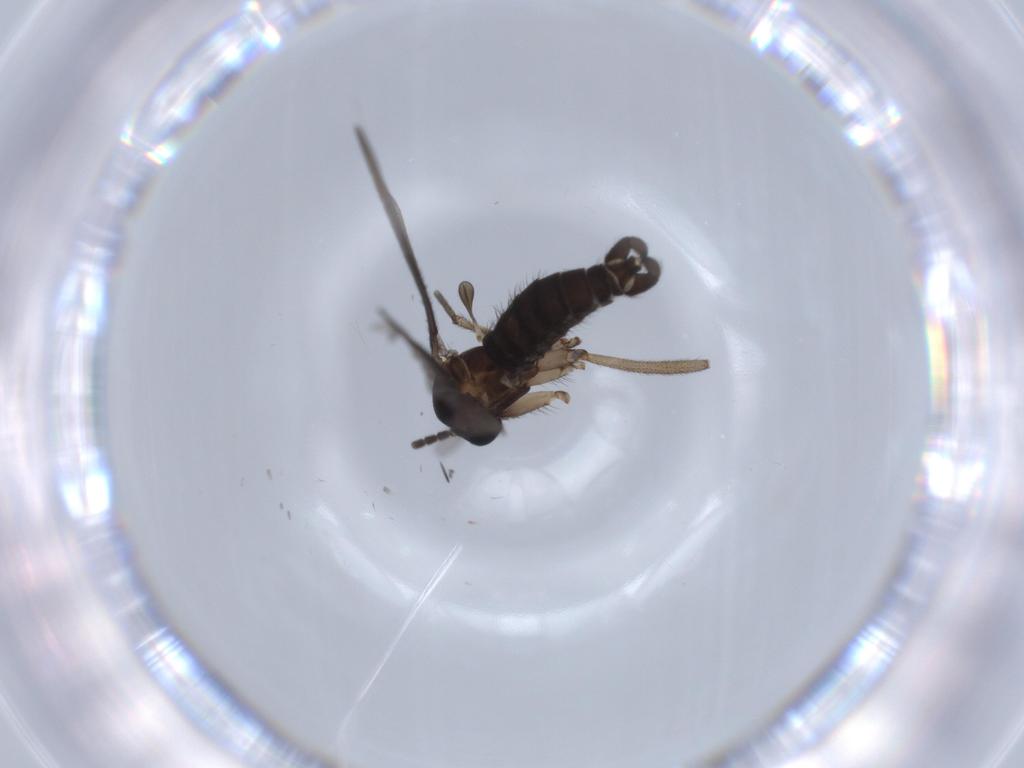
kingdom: Animalia
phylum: Arthropoda
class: Insecta
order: Diptera
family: Sciaridae
